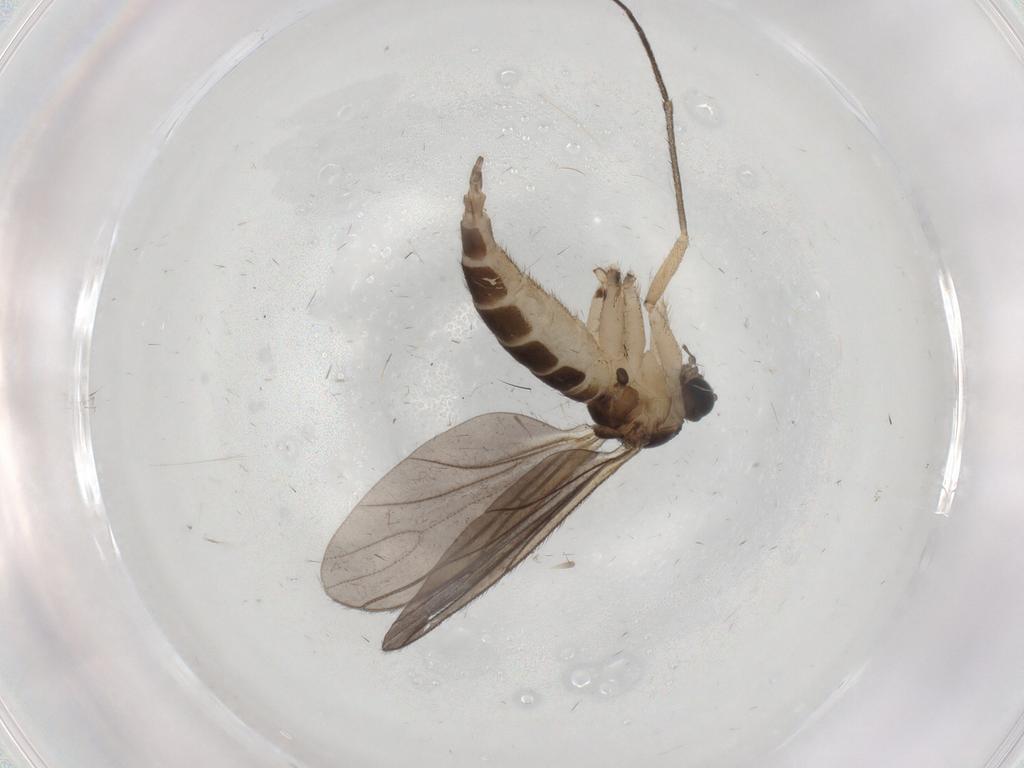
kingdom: Animalia
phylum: Arthropoda
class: Insecta
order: Diptera
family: Sciaridae
